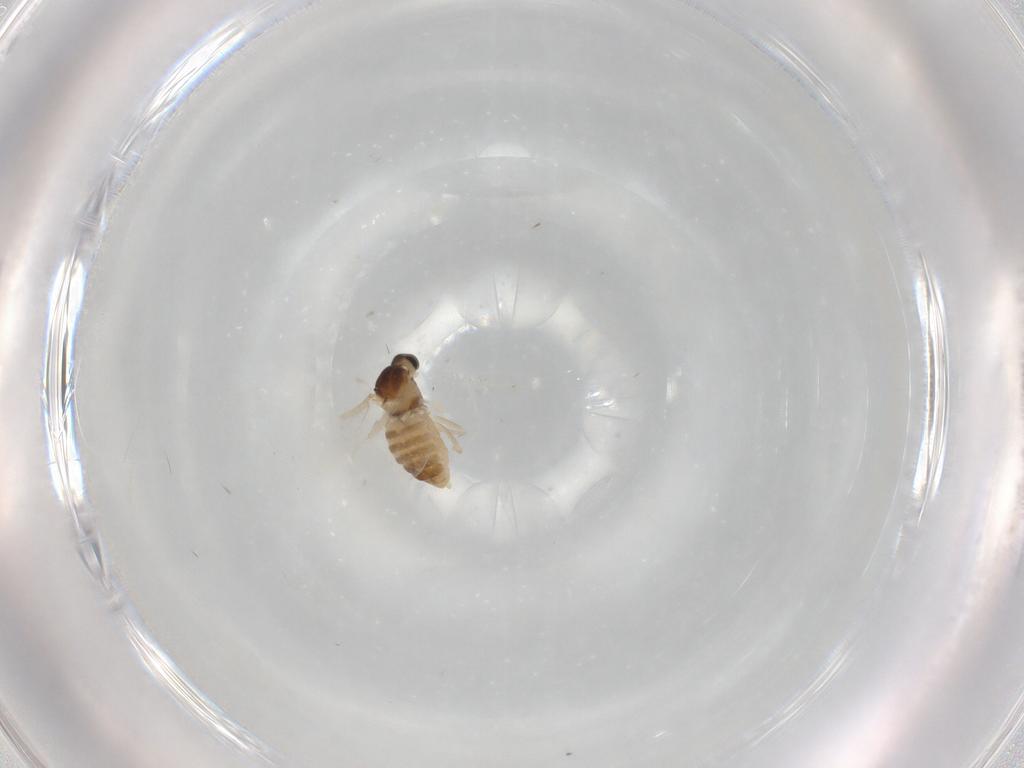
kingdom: Animalia
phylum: Arthropoda
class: Insecta
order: Diptera
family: Cecidomyiidae
